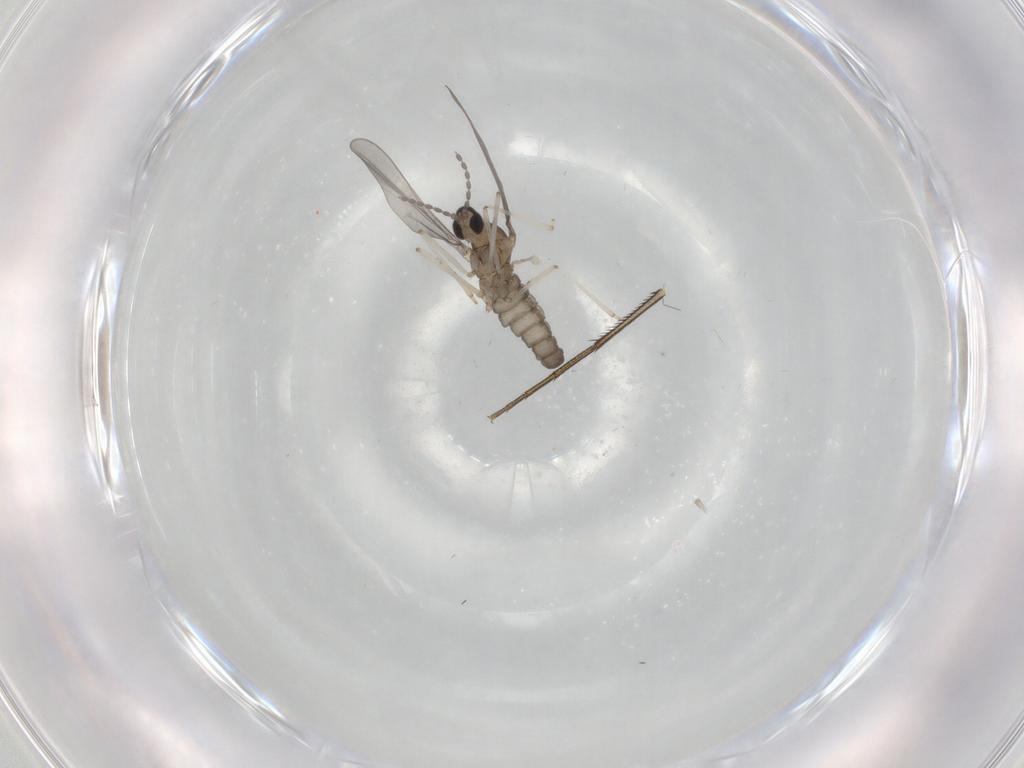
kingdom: Animalia
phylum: Arthropoda
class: Insecta
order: Diptera
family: Cecidomyiidae
